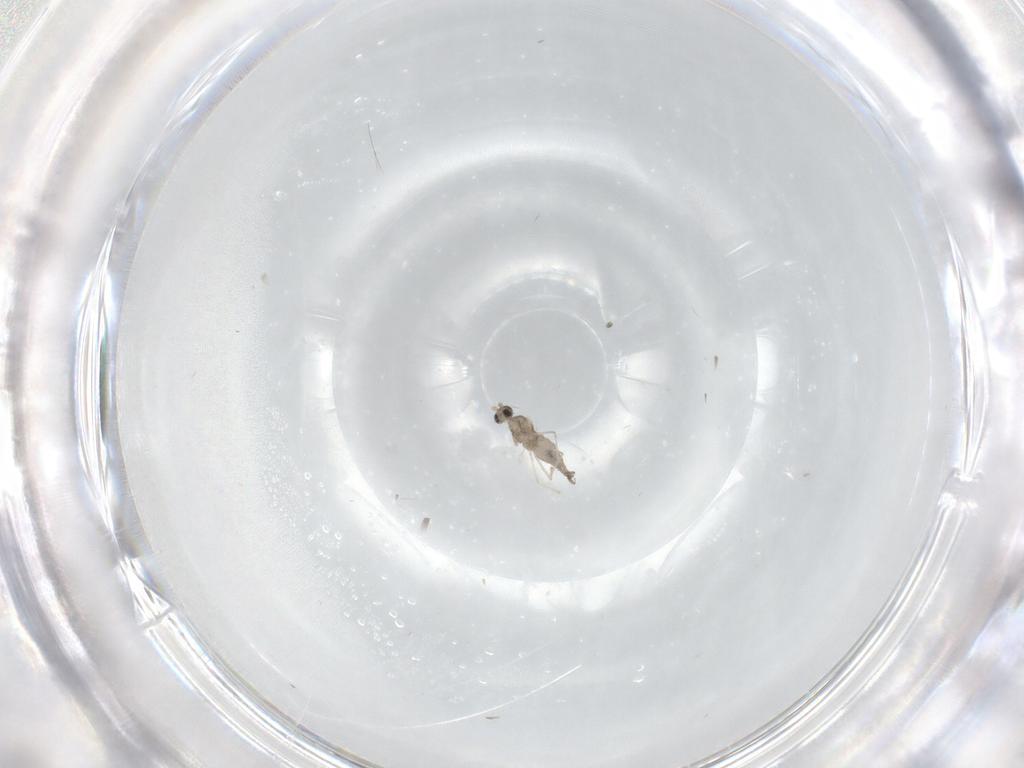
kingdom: Animalia
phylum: Arthropoda
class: Insecta
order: Diptera
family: Cecidomyiidae
